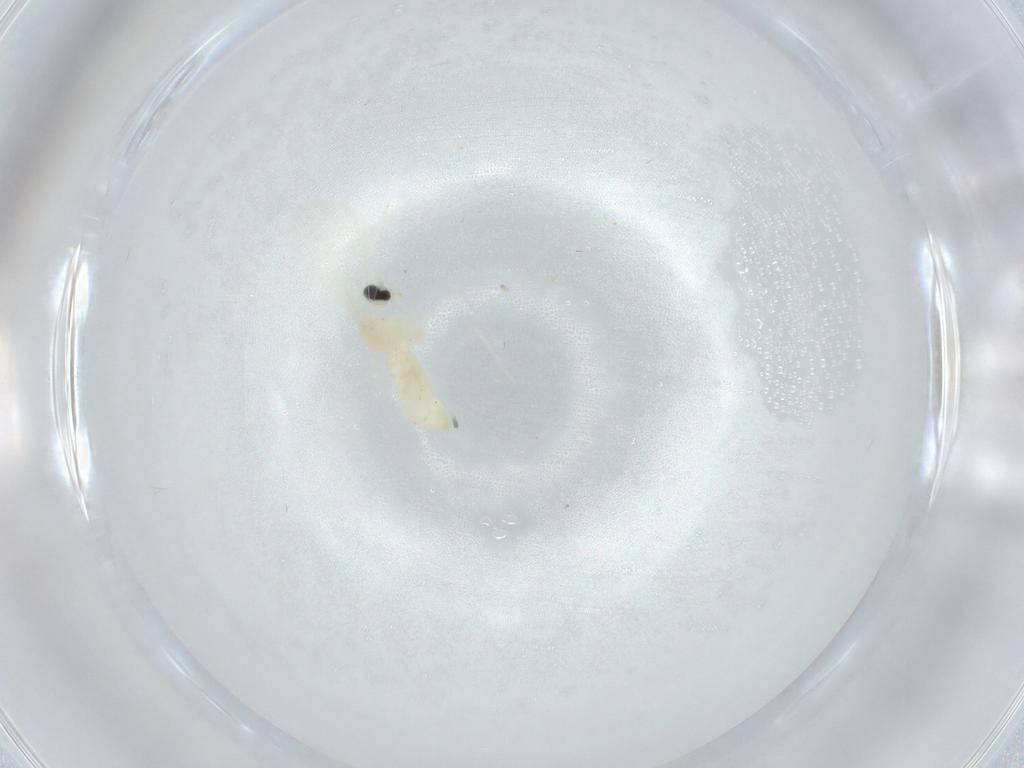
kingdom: Animalia
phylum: Arthropoda
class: Insecta
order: Diptera
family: Cecidomyiidae
